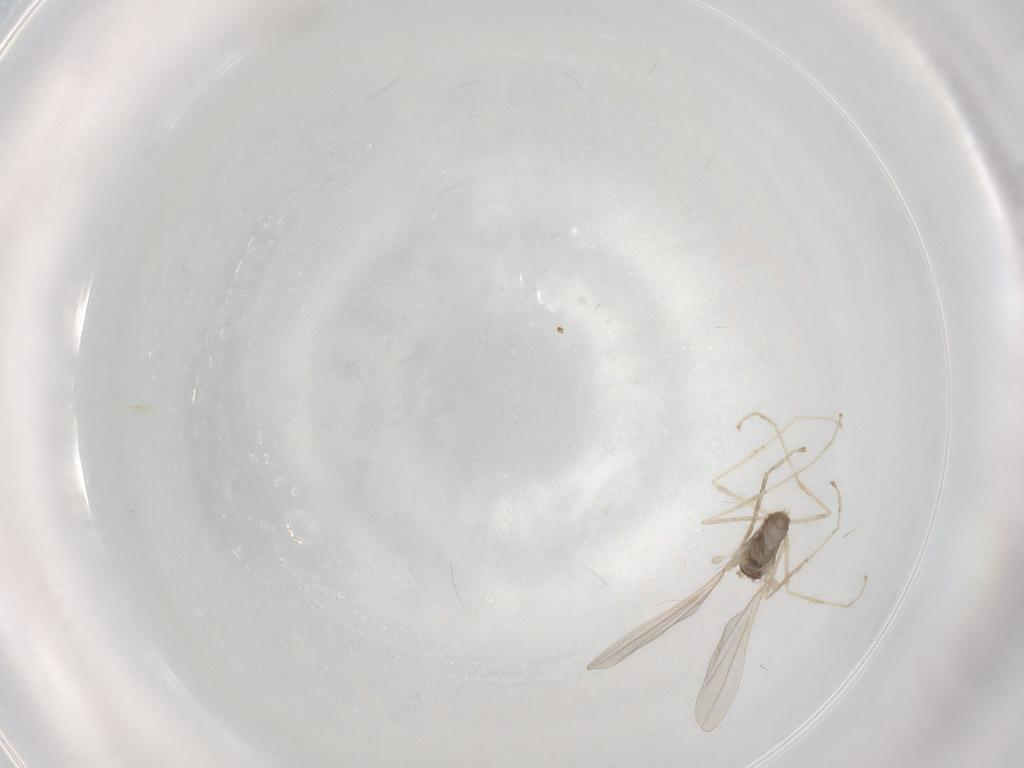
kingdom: Animalia
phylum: Arthropoda
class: Insecta
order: Diptera
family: Cecidomyiidae
